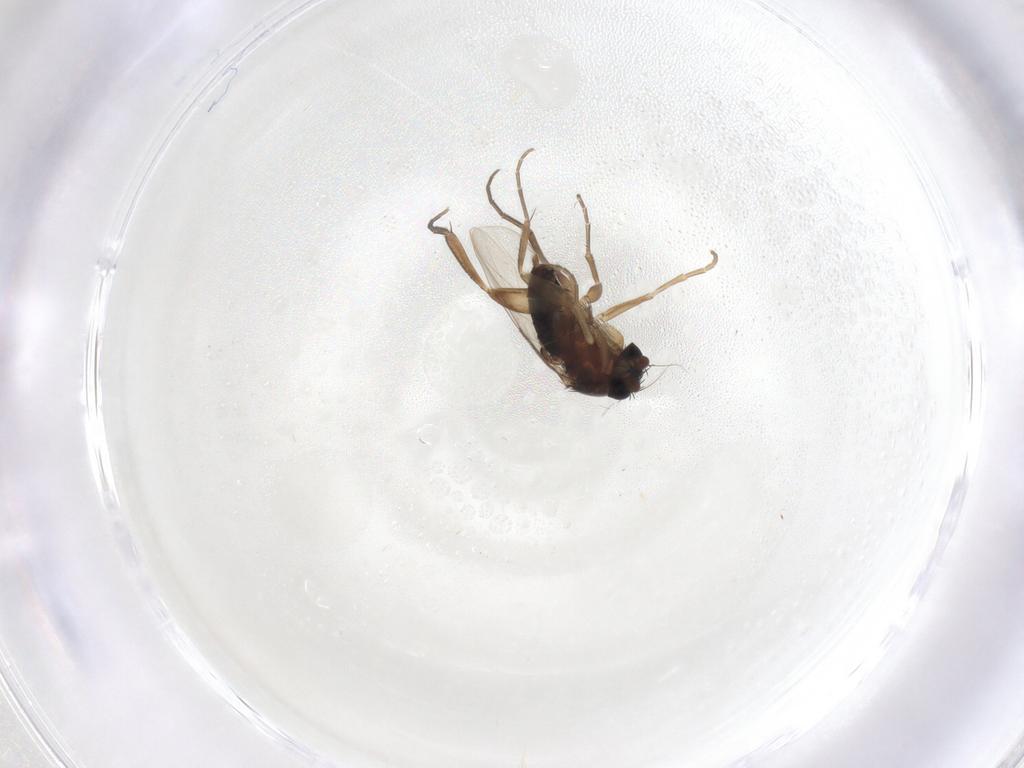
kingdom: Animalia
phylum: Arthropoda
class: Insecta
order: Diptera
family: Phoridae
